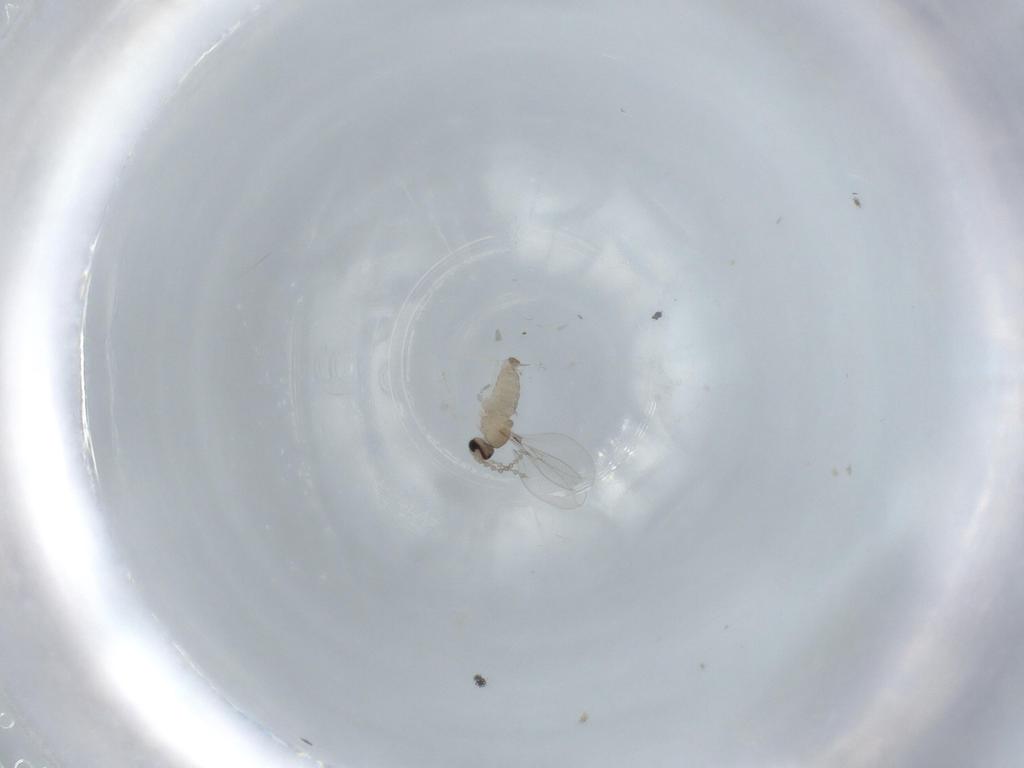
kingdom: Animalia
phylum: Arthropoda
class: Insecta
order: Diptera
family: Cecidomyiidae
